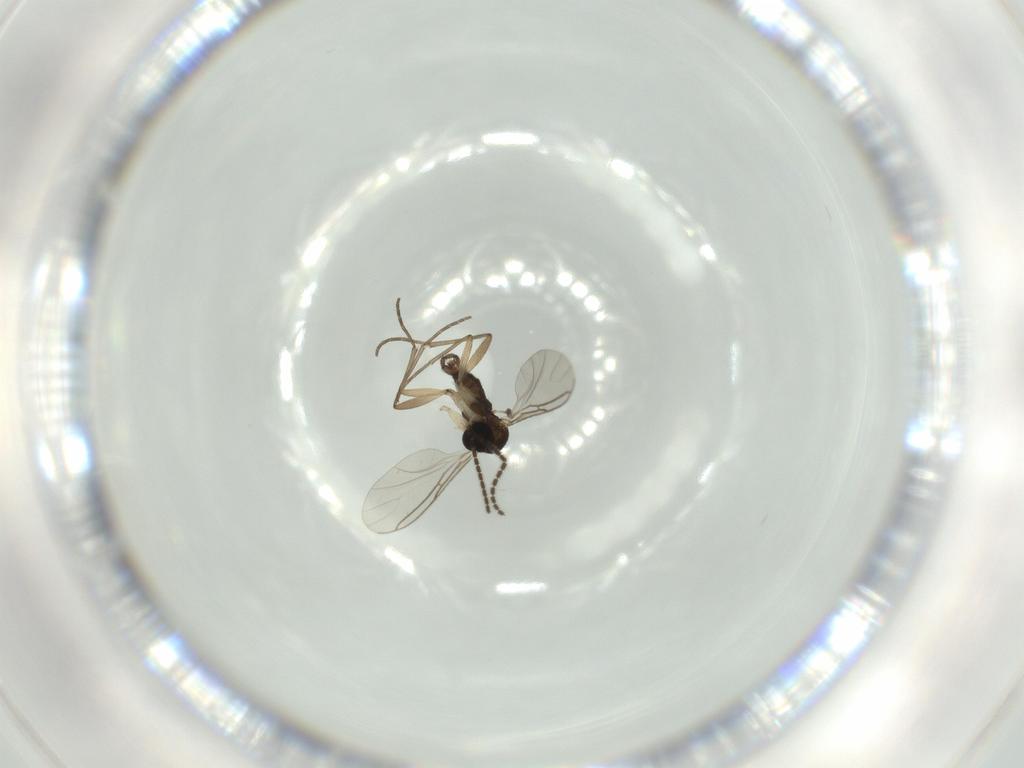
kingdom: Animalia
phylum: Arthropoda
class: Insecta
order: Diptera
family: Sciaridae
